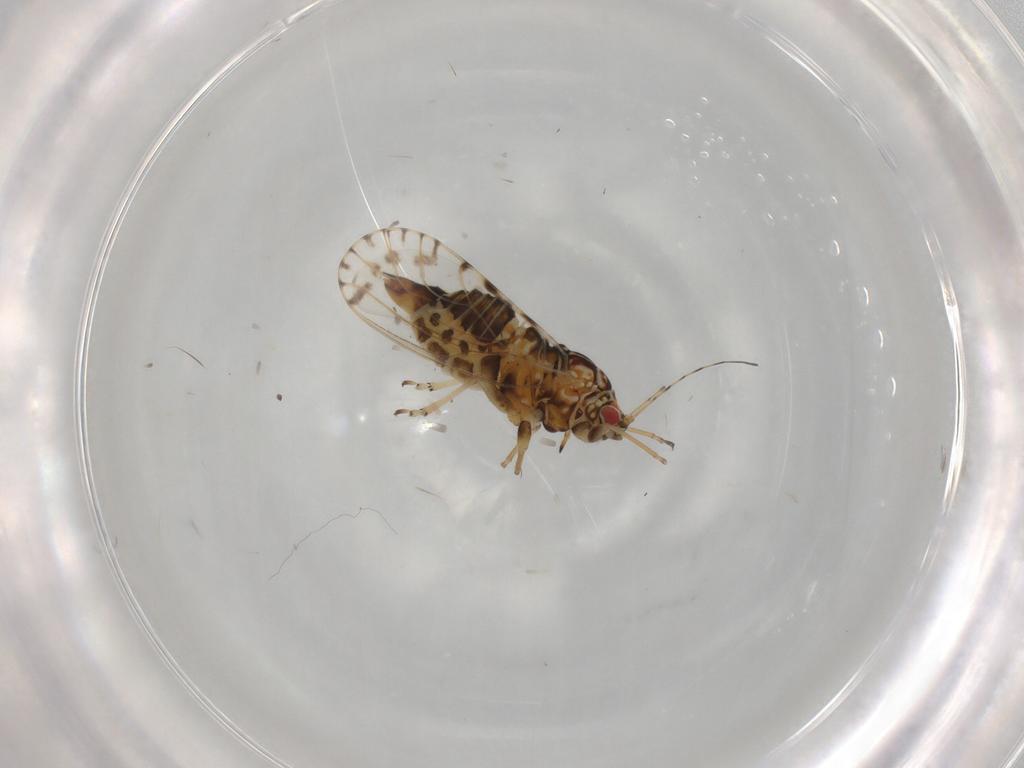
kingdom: Animalia
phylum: Arthropoda
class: Insecta
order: Hemiptera
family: Psyllidae
